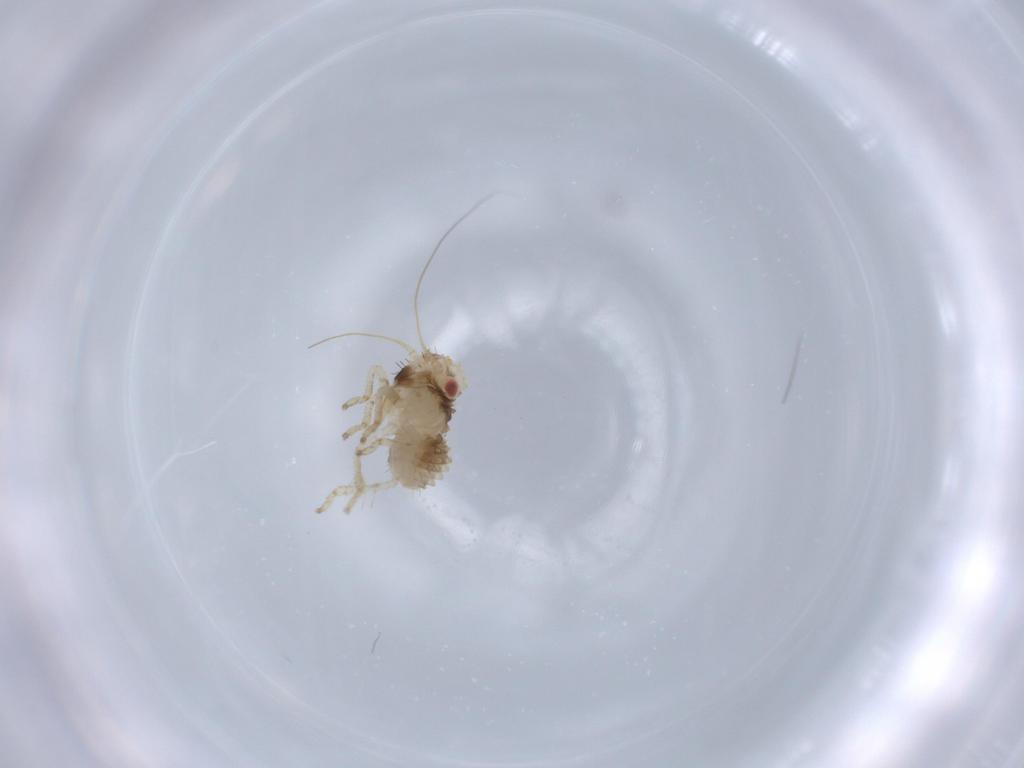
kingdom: Animalia
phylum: Arthropoda
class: Insecta
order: Hemiptera
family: Cicadellidae
